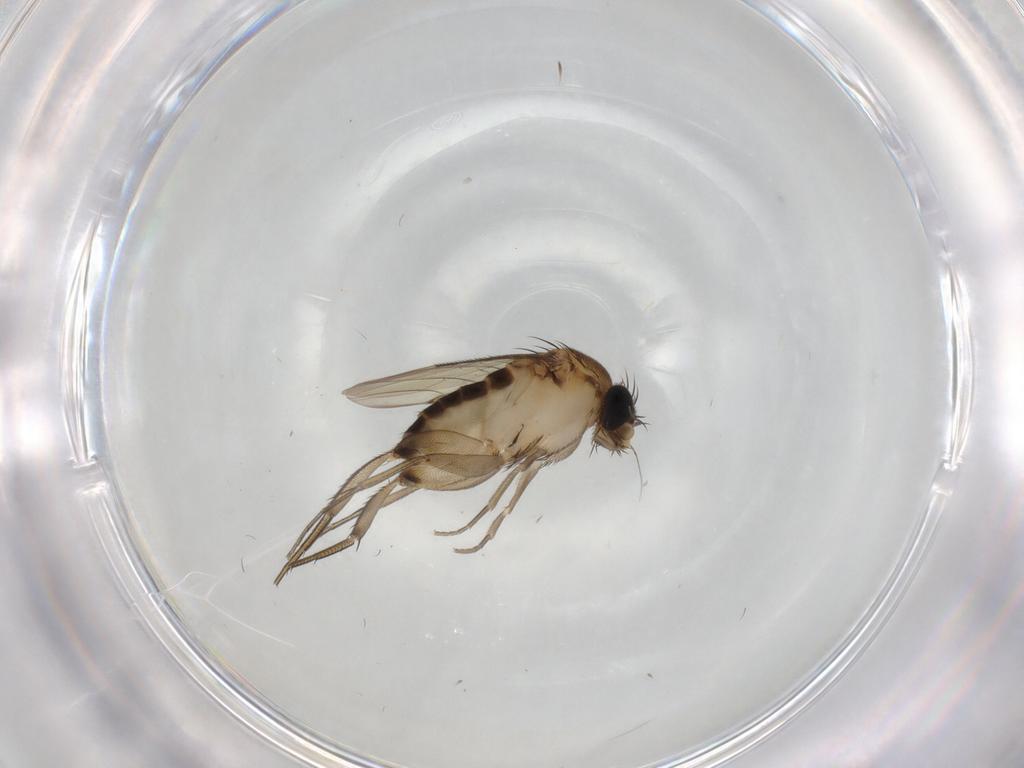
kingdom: Animalia
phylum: Arthropoda
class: Insecta
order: Diptera
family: Phoridae
